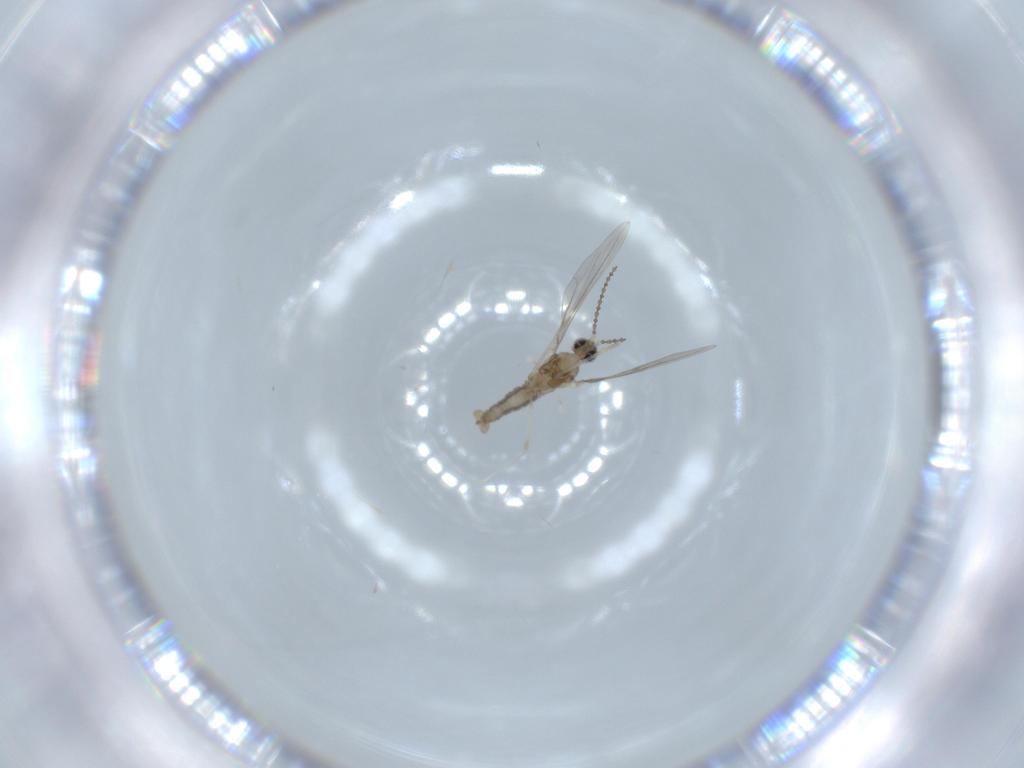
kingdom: Animalia
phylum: Arthropoda
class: Insecta
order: Diptera
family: Cecidomyiidae
